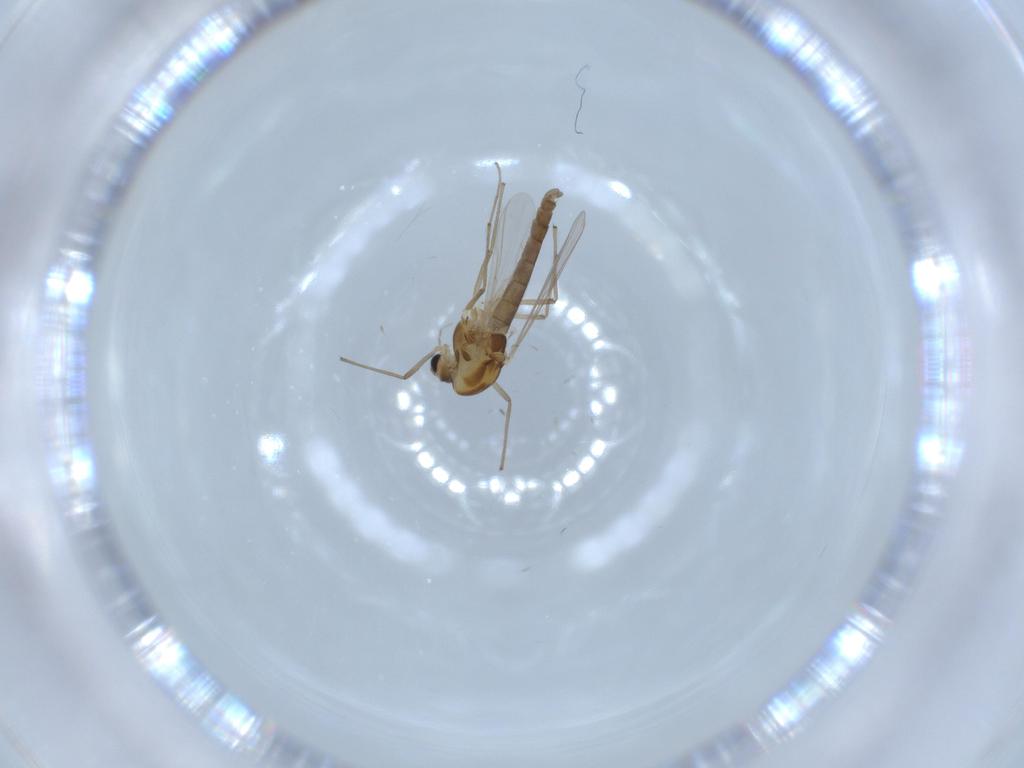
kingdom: Animalia
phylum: Arthropoda
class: Insecta
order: Diptera
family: Chironomidae
